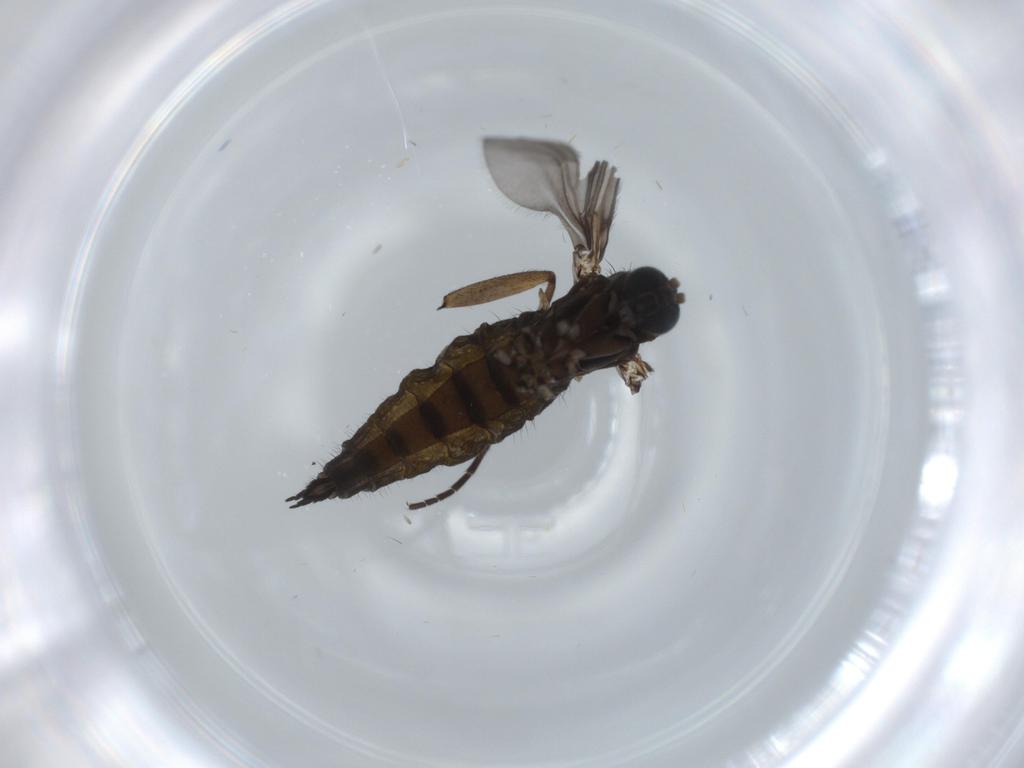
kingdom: Animalia
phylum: Arthropoda
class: Insecta
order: Diptera
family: Sciaridae
